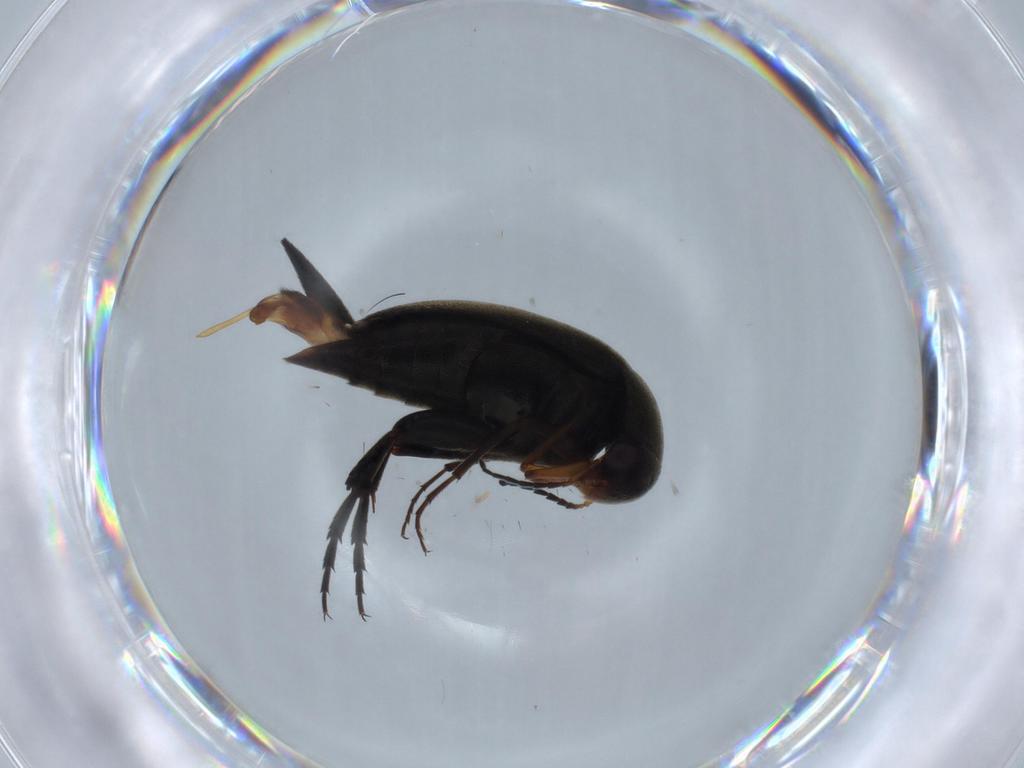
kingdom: Animalia
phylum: Arthropoda
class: Insecta
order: Coleoptera
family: Mordellidae
